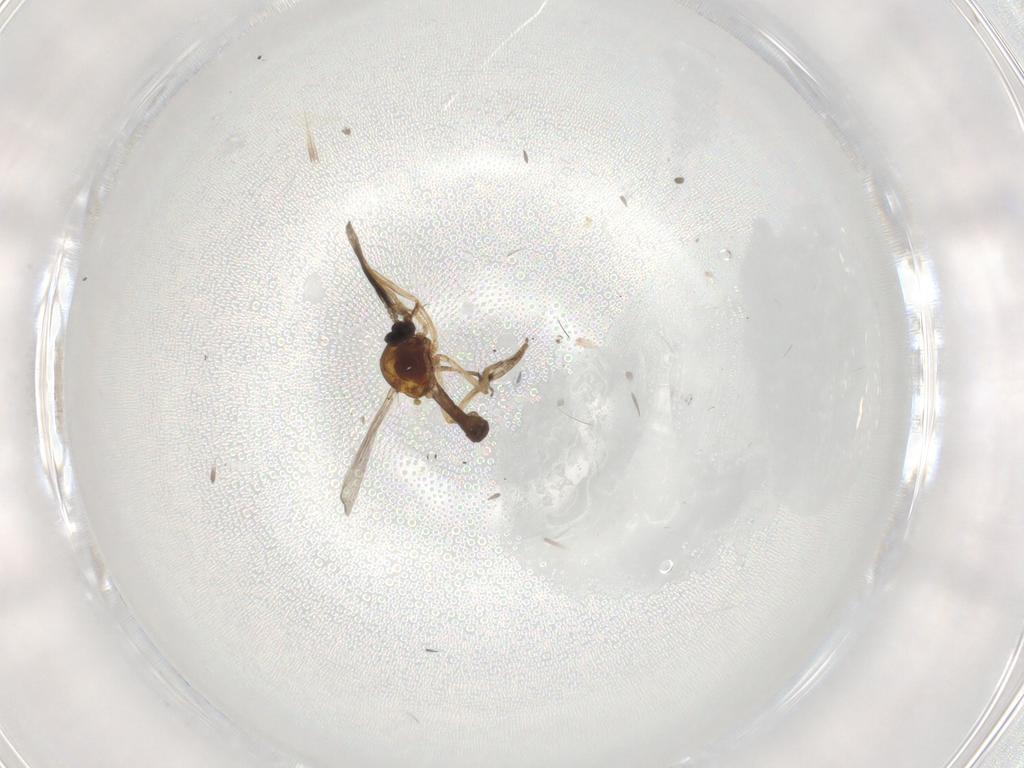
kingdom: Animalia
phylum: Arthropoda
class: Insecta
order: Diptera
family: Ceratopogonidae
